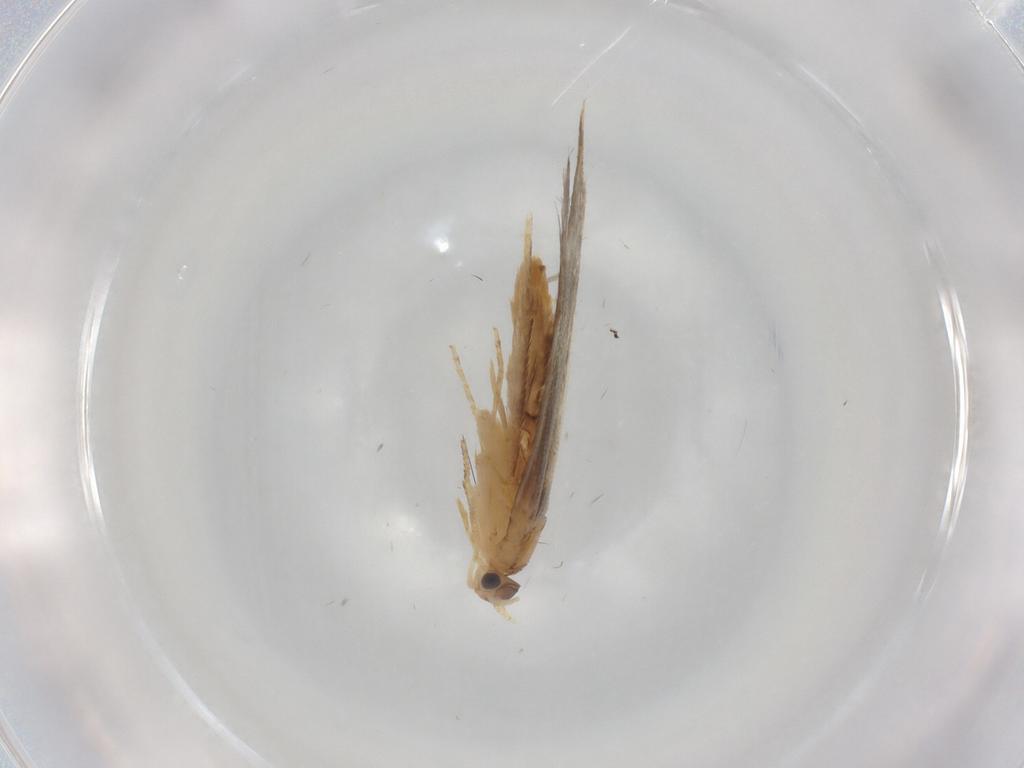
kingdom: Animalia
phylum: Arthropoda
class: Insecta
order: Lepidoptera
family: Dryadaulidae
